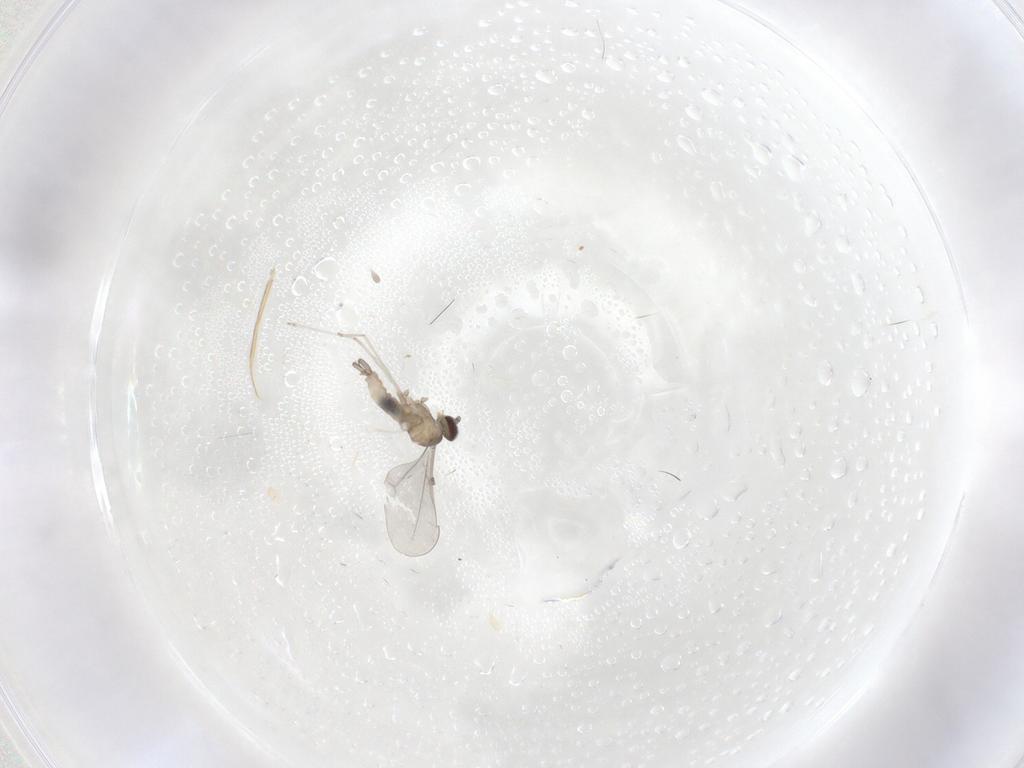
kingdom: Animalia
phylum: Arthropoda
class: Insecta
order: Diptera
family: Cecidomyiidae
